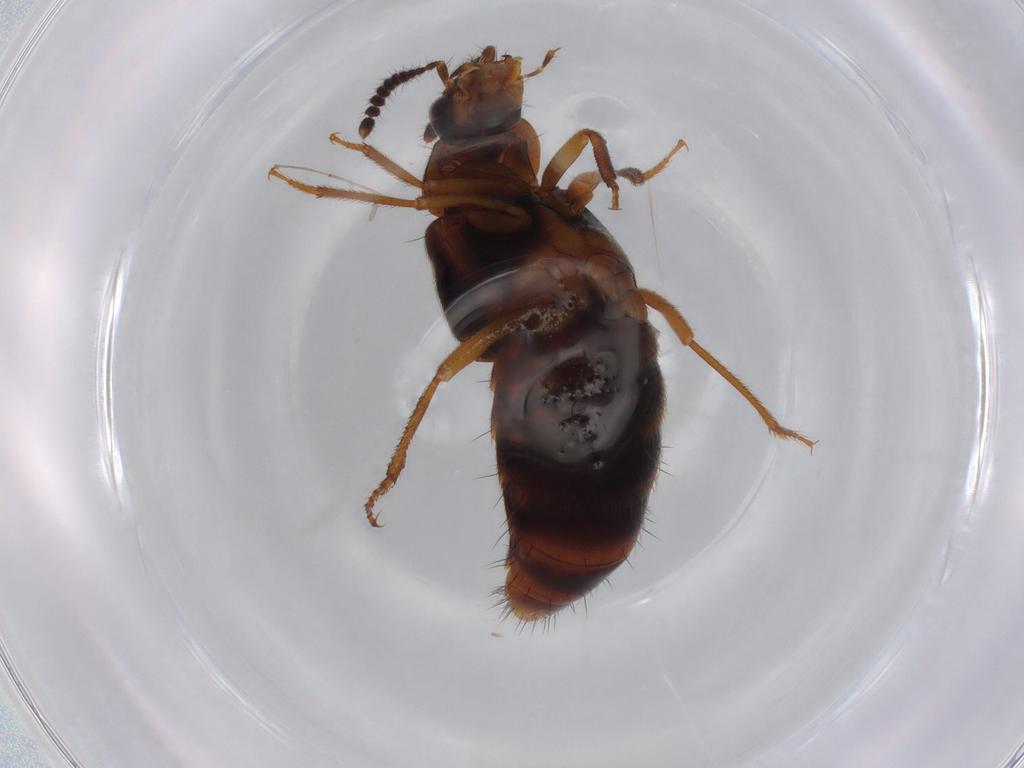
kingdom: Animalia
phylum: Arthropoda
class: Insecta
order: Coleoptera
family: Staphylinidae
